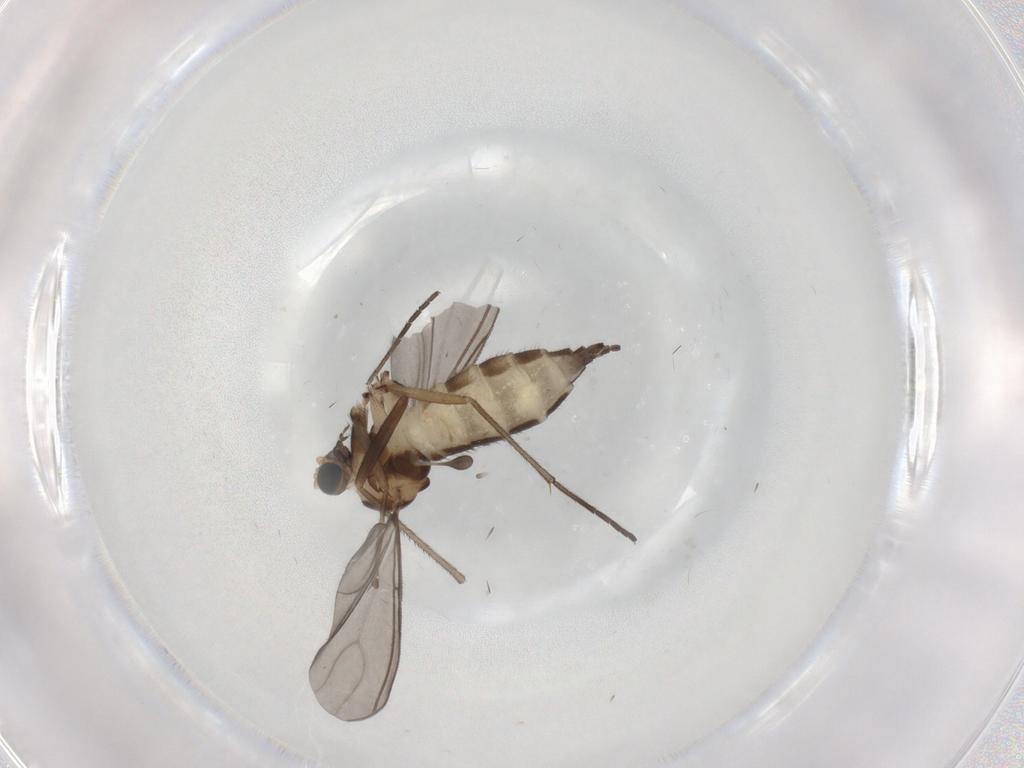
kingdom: Animalia
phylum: Arthropoda
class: Insecta
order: Diptera
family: Sciaridae
